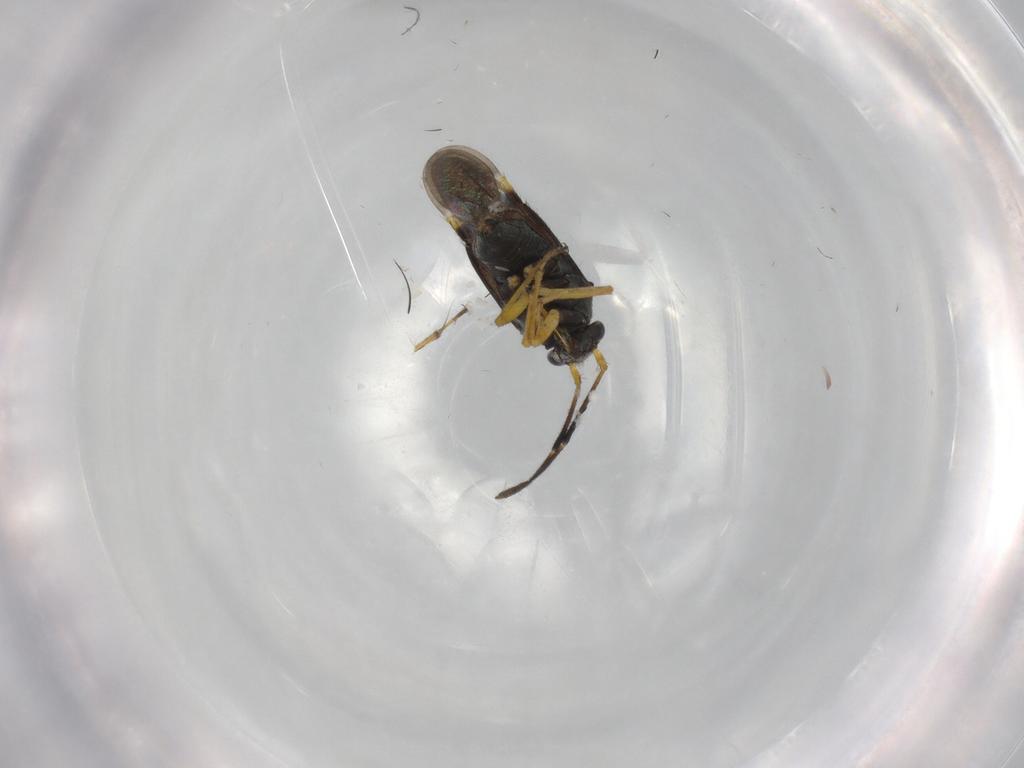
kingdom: Animalia
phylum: Arthropoda
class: Insecta
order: Hemiptera
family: Miridae
